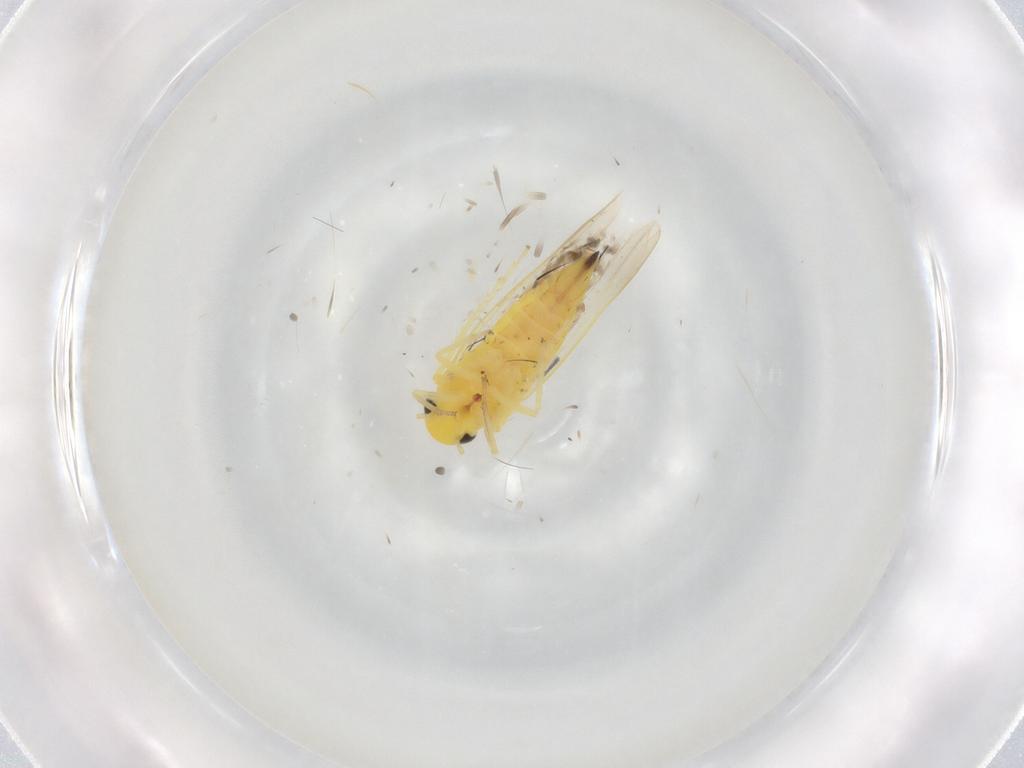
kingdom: Animalia
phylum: Arthropoda
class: Insecta
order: Hemiptera
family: Cicadellidae
